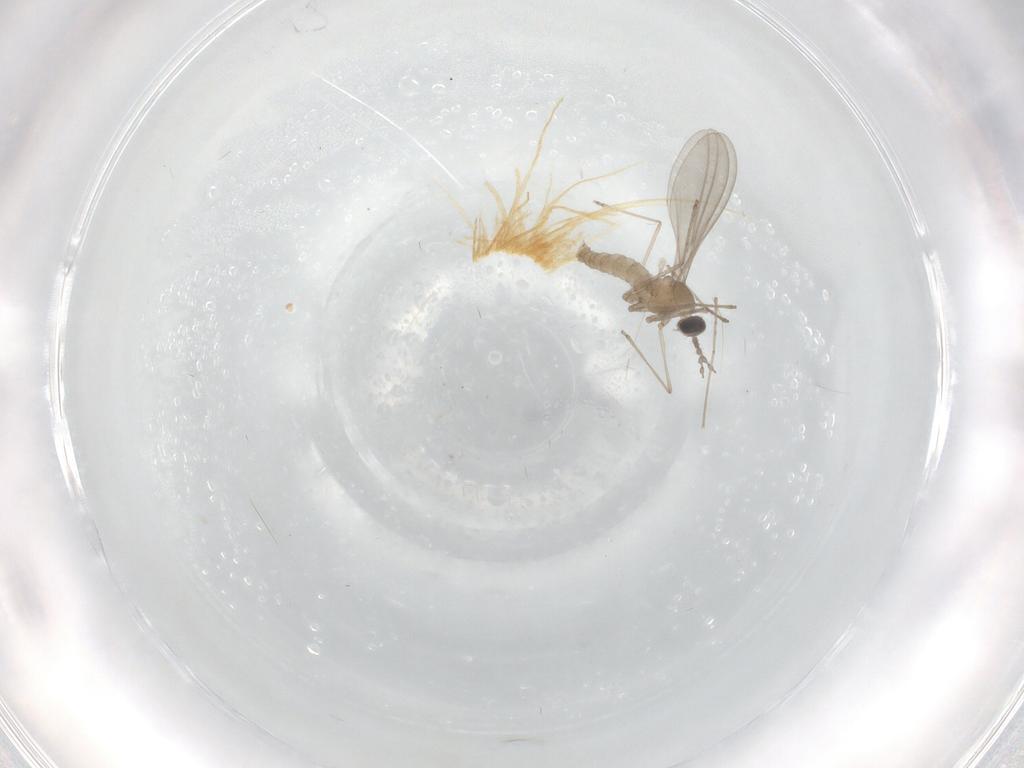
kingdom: Animalia
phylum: Arthropoda
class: Insecta
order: Diptera
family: Cecidomyiidae
